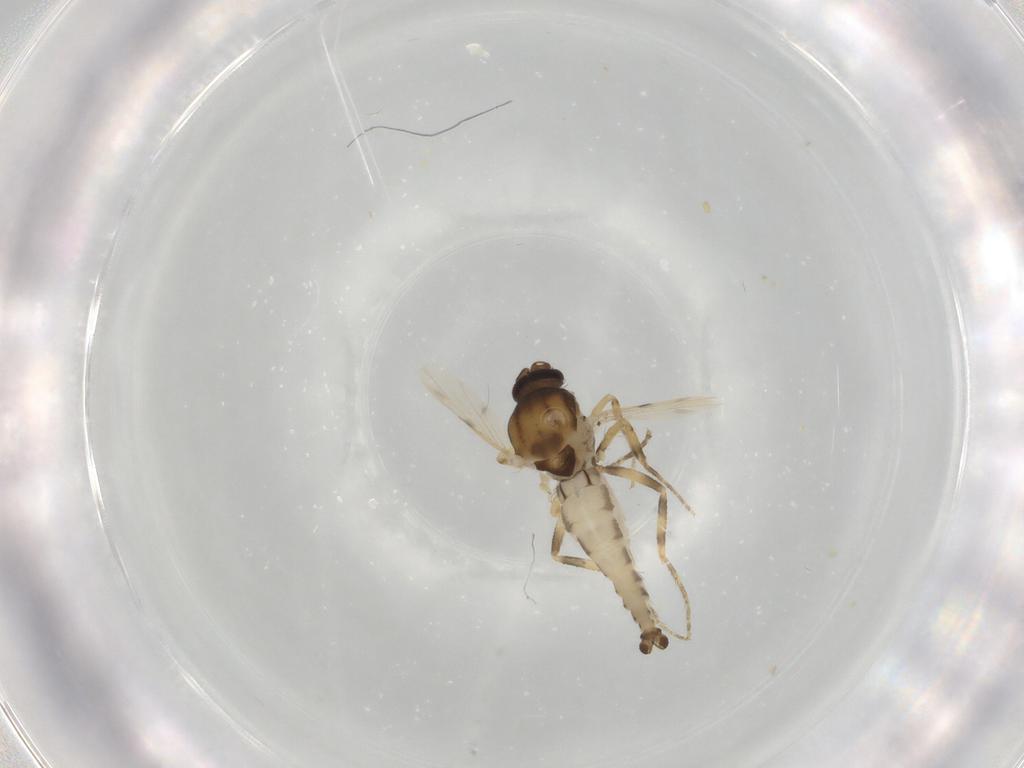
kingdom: Animalia
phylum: Arthropoda
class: Insecta
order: Diptera
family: Ceratopogonidae
